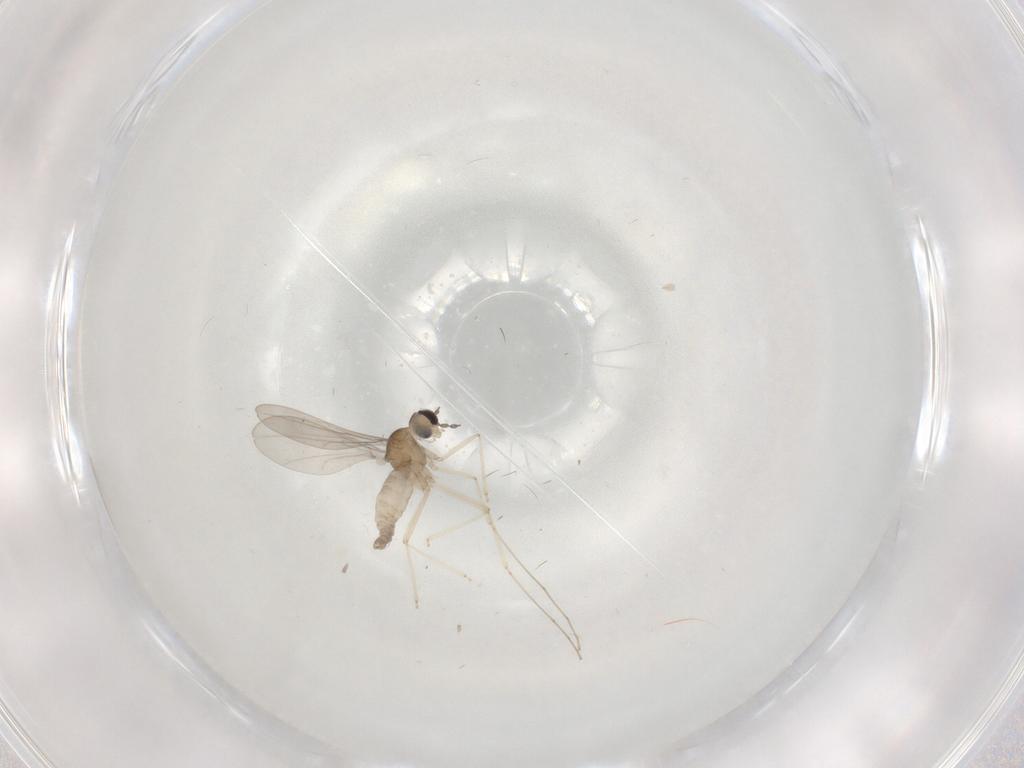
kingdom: Animalia
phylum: Arthropoda
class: Insecta
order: Diptera
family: Cecidomyiidae
